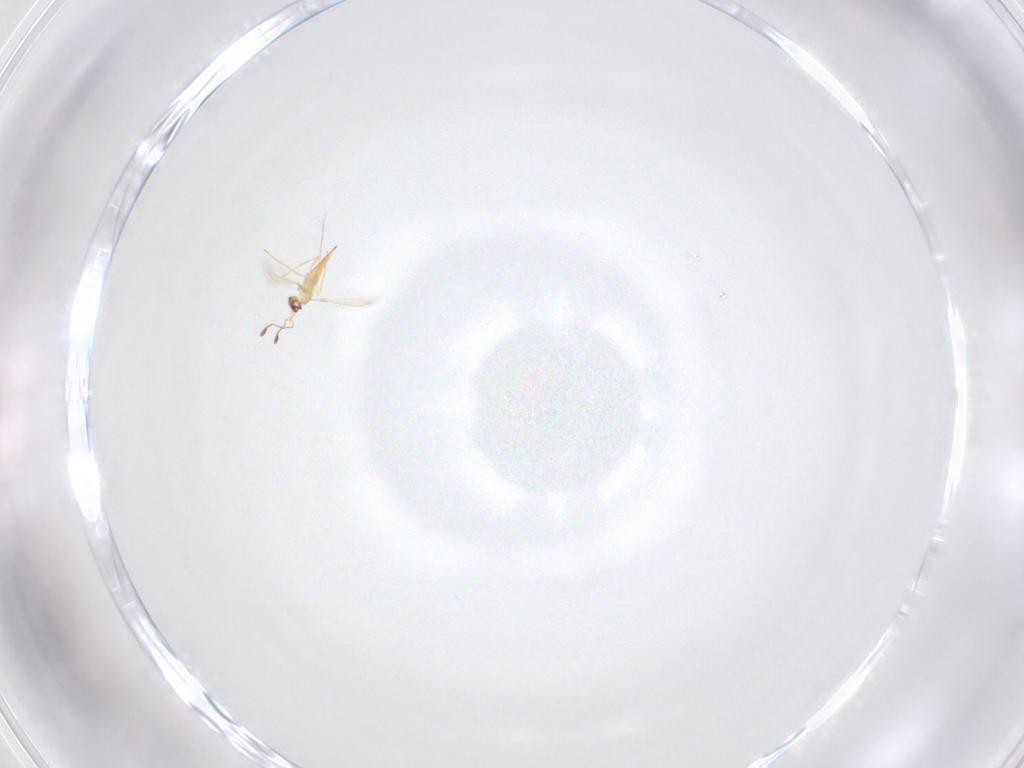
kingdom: Animalia
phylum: Arthropoda
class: Insecta
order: Hymenoptera
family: Mymaridae
